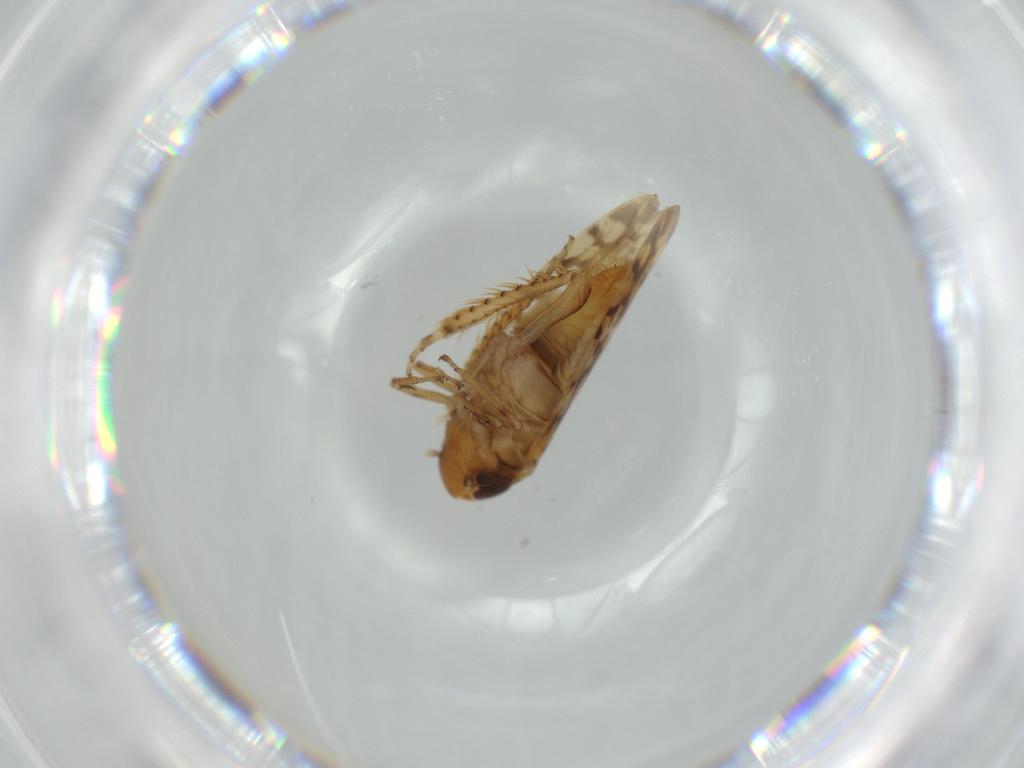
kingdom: Animalia
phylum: Arthropoda
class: Insecta
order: Hemiptera
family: Cicadellidae
